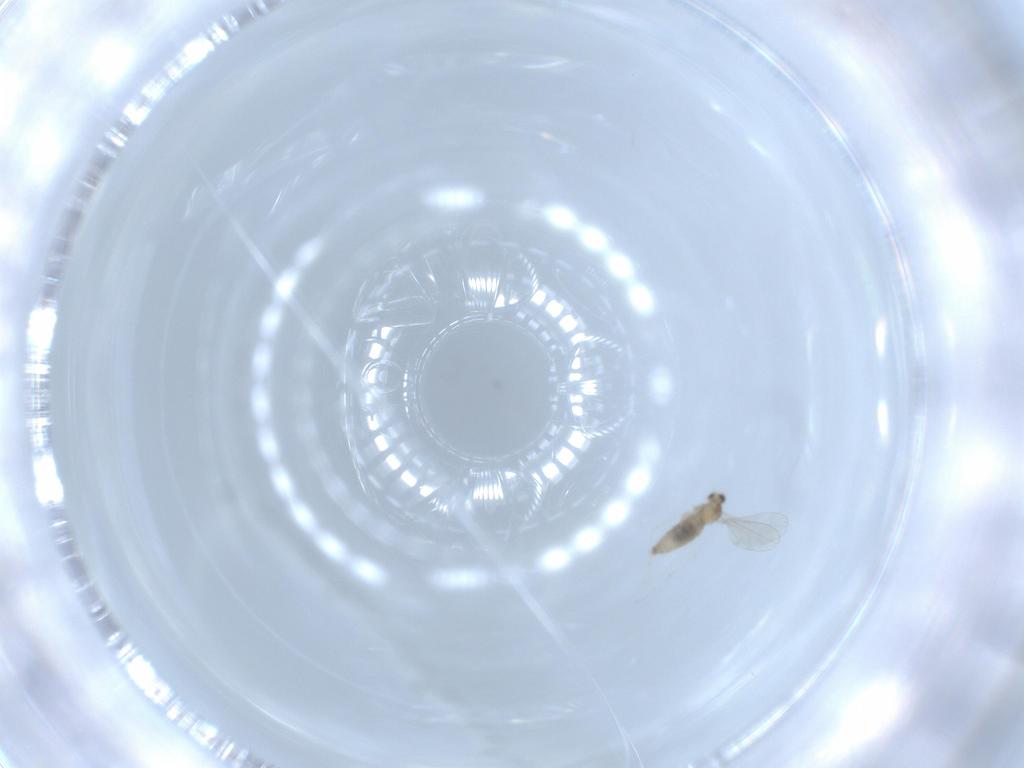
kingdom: Animalia
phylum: Arthropoda
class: Insecta
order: Diptera
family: Cecidomyiidae
